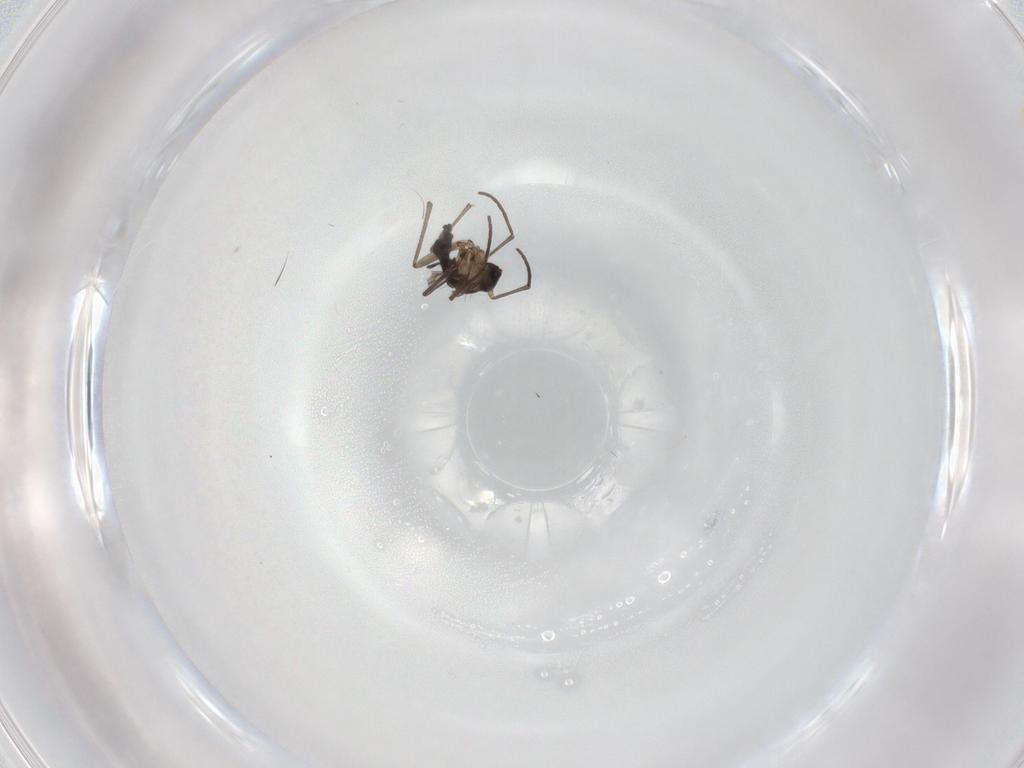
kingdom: Animalia
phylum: Arthropoda
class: Insecta
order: Diptera
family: Sciaridae
